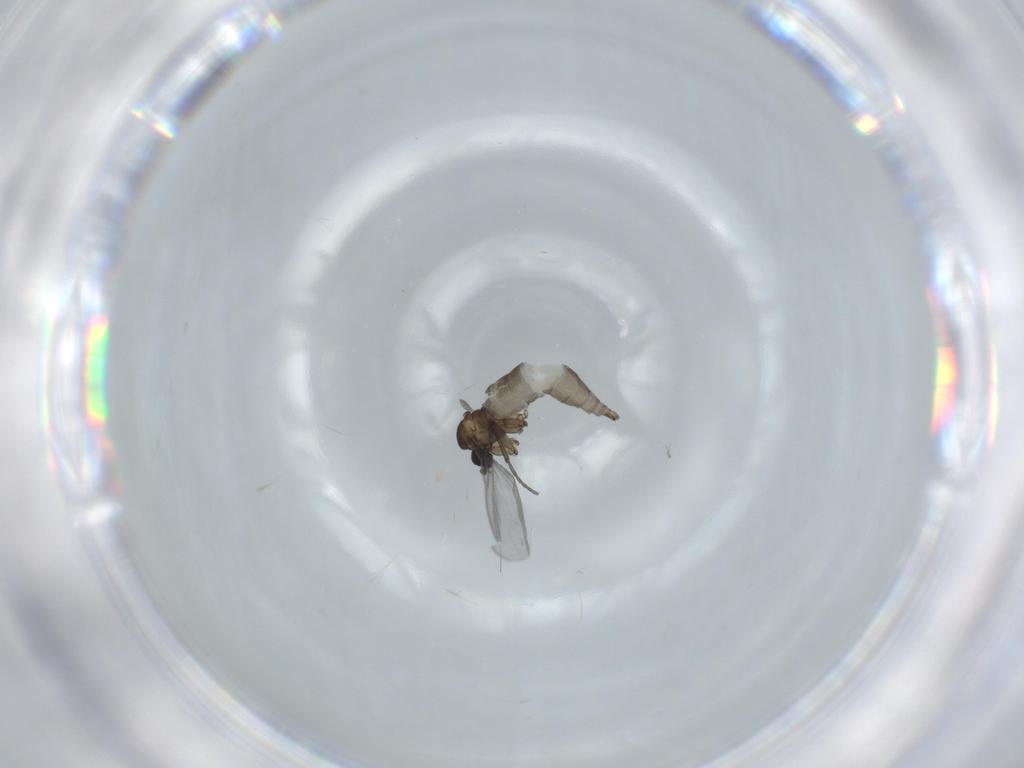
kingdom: Animalia
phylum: Arthropoda
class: Insecta
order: Diptera
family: Sciaridae
